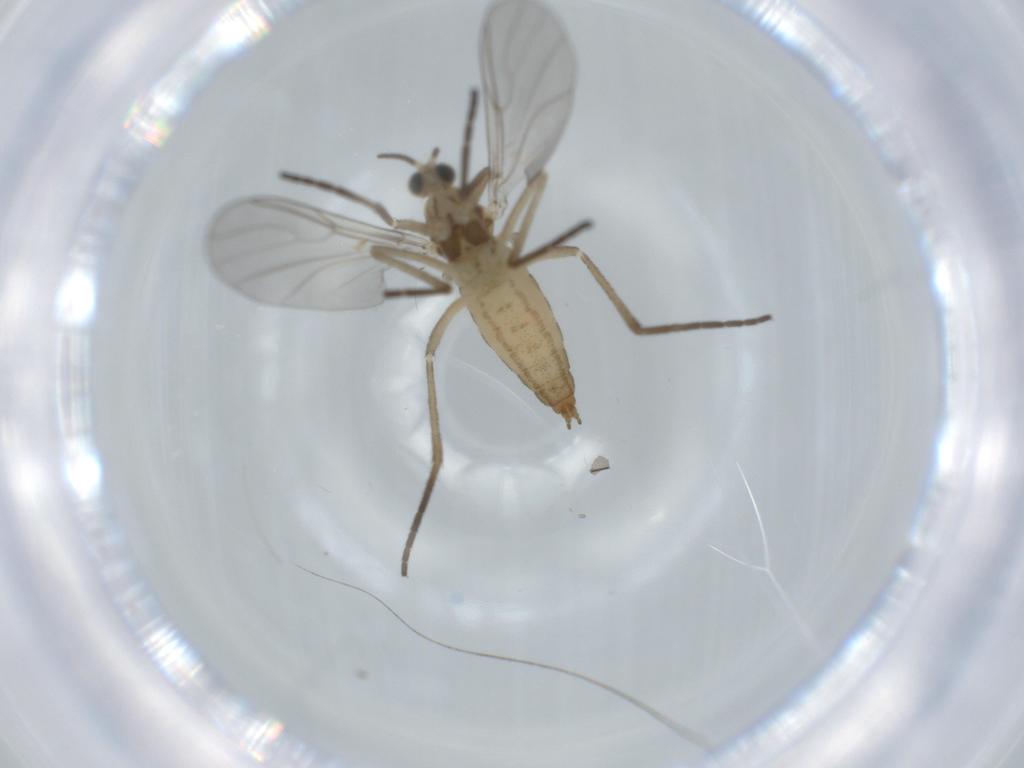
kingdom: Animalia
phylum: Arthropoda
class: Insecta
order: Diptera
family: Cecidomyiidae
